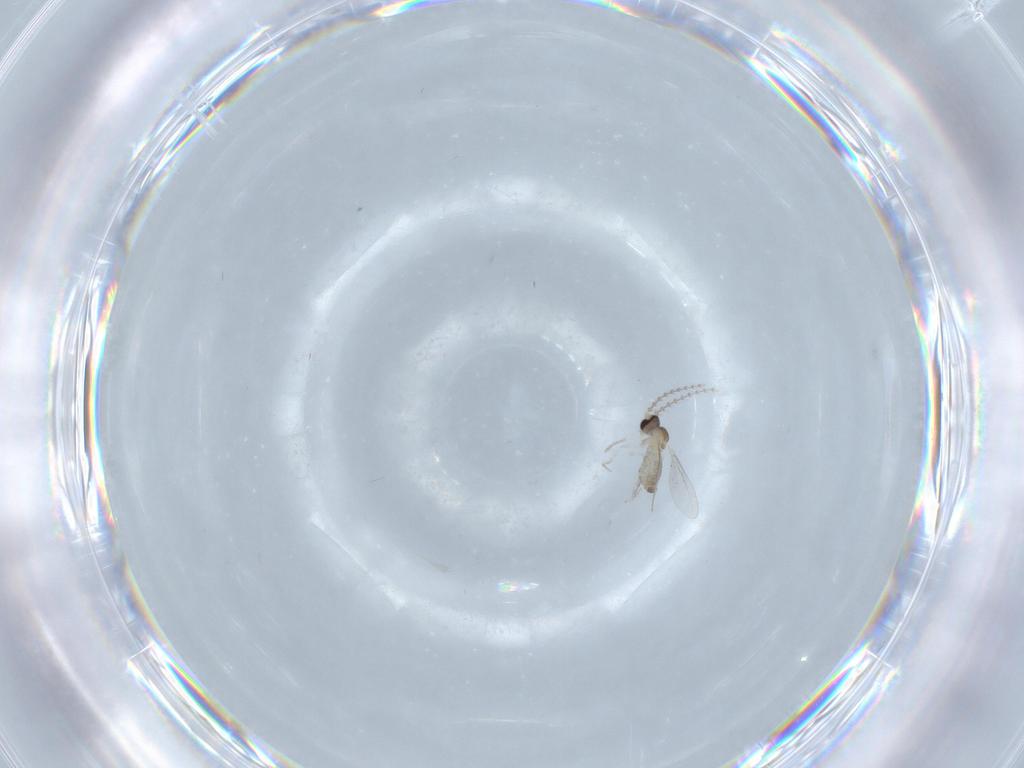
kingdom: Animalia
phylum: Arthropoda
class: Insecta
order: Diptera
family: Cecidomyiidae
